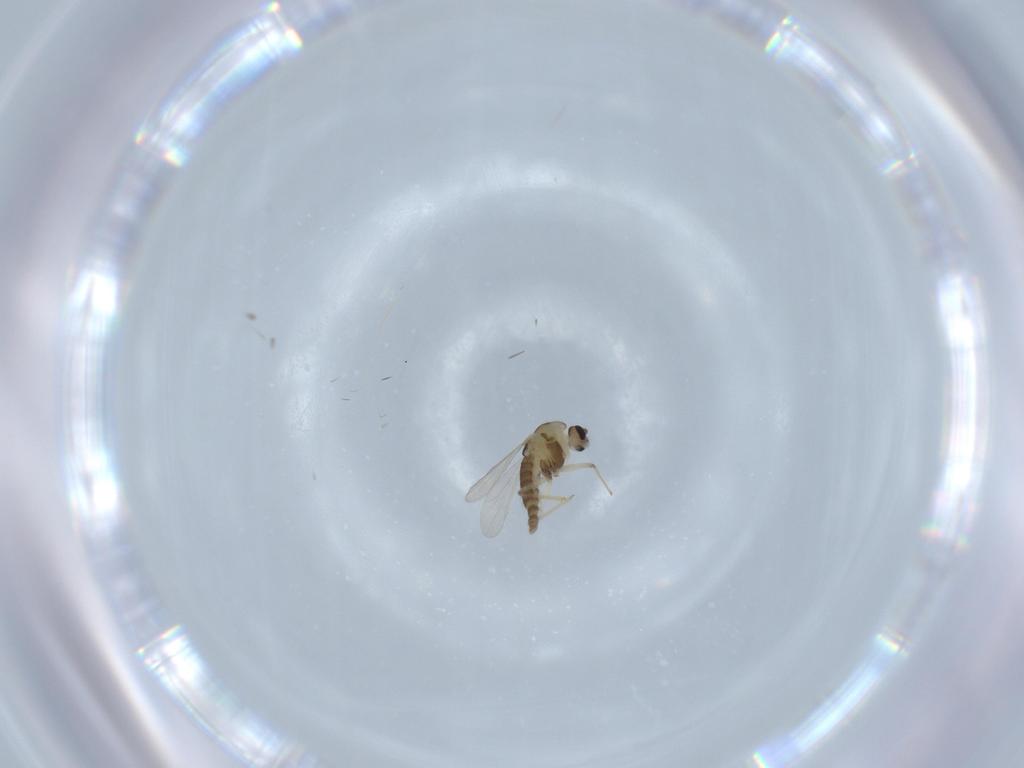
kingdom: Animalia
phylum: Arthropoda
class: Insecta
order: Diptera
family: Chironomidae
